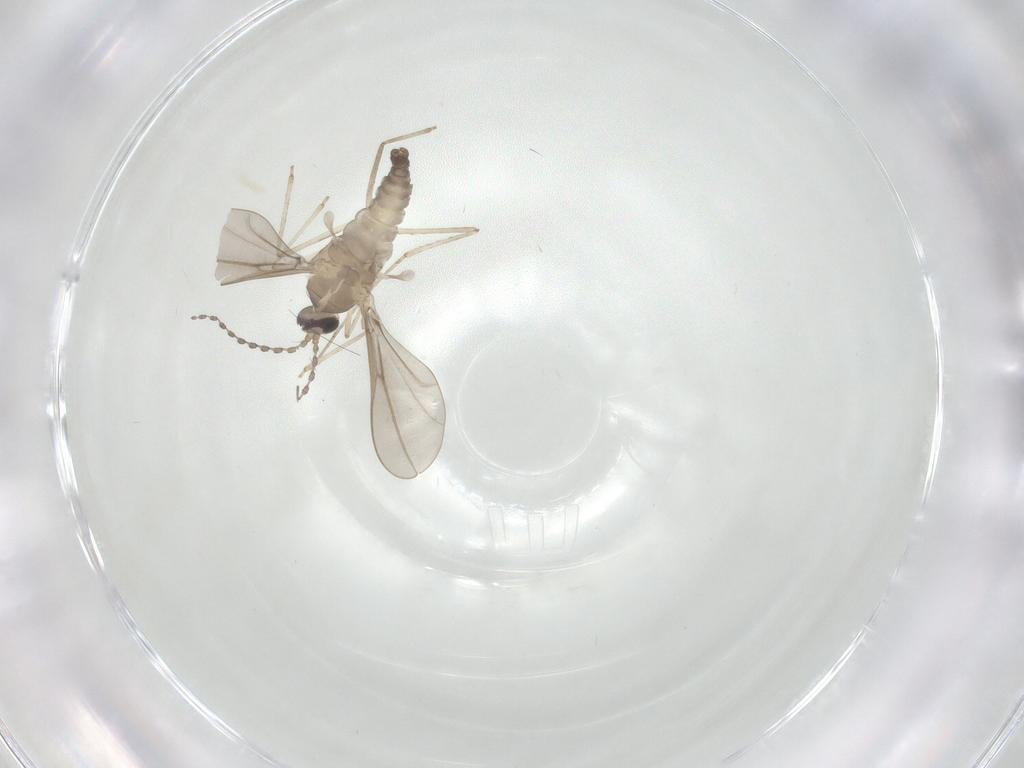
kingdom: Animalia
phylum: Arthropoda
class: Insecta
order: Diptera
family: Cecidomyiidae
